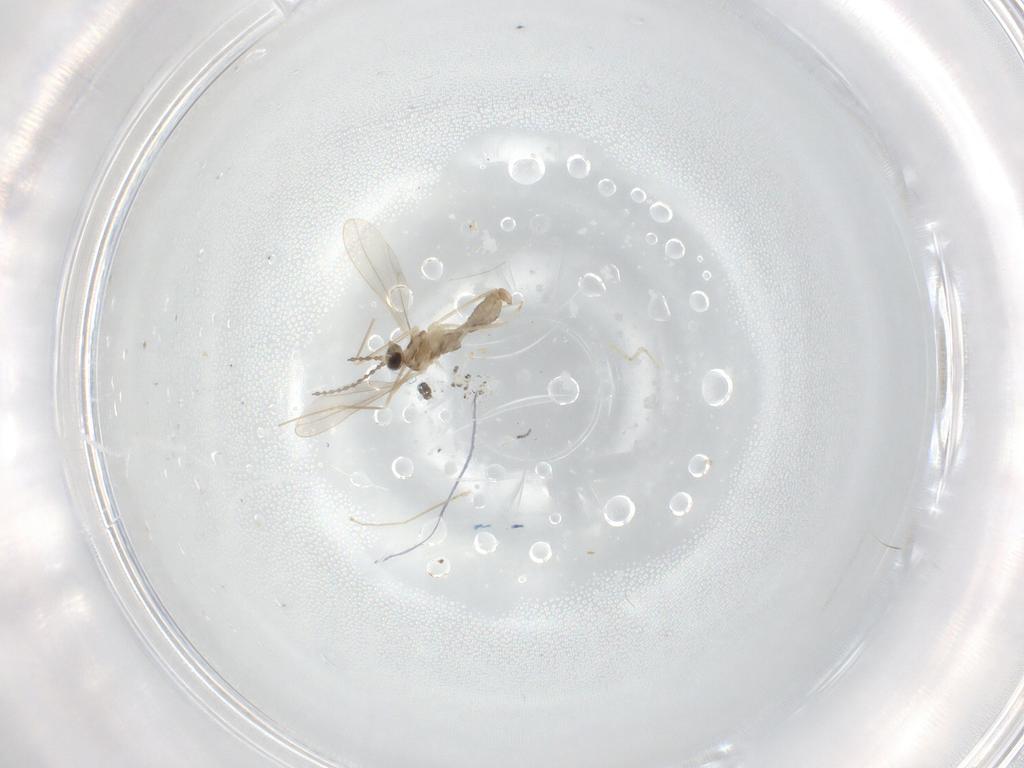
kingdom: Animalia
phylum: Arthropoda
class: Insecta
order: Diptera
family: Cecidomyiidae
